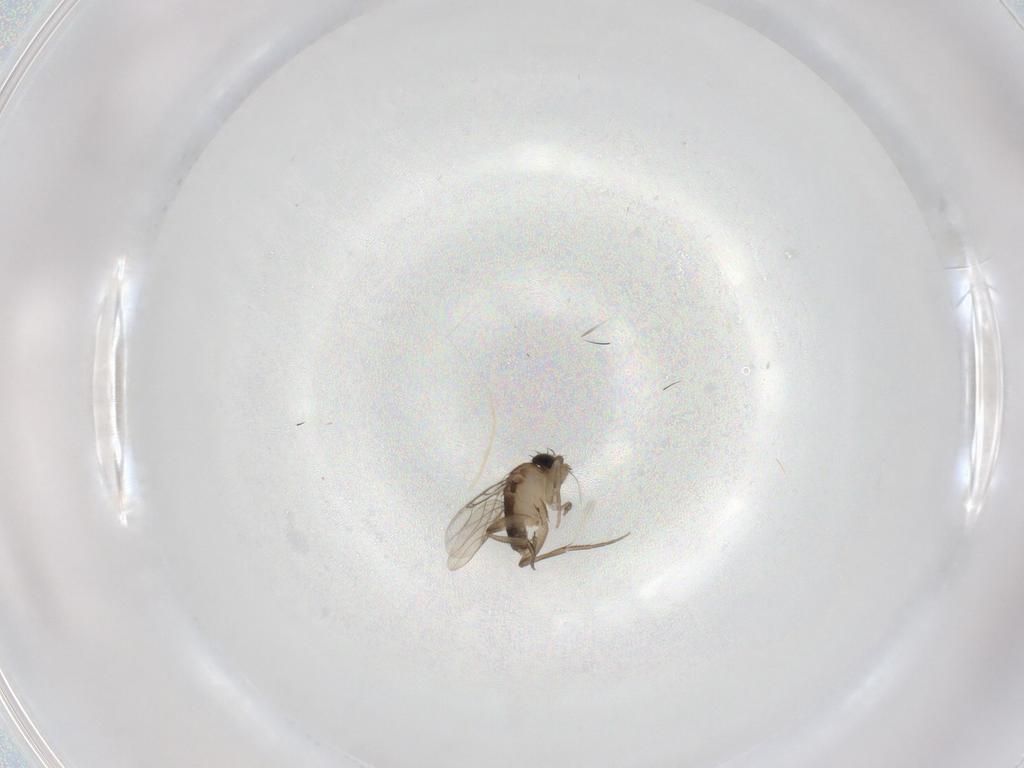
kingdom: Animalia
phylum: Arthropoda
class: Insecta
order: Diptera
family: Phoridae
